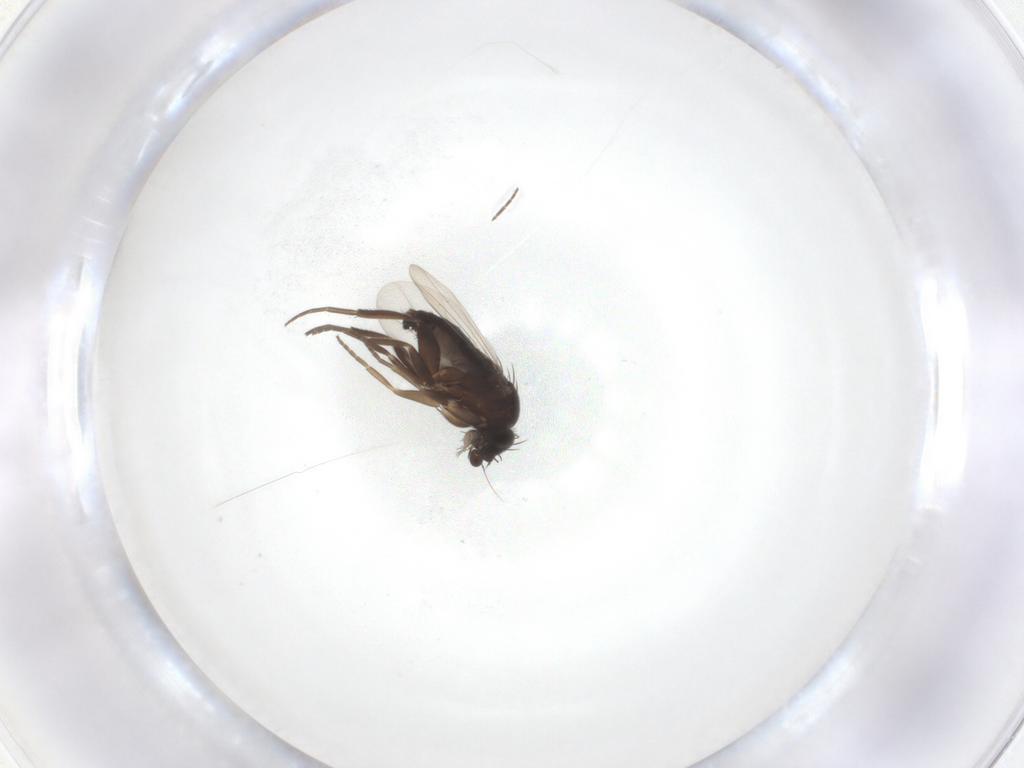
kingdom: Animalia
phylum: Arthropoda
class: Insecta
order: Diptera
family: Cecidomyiidae
